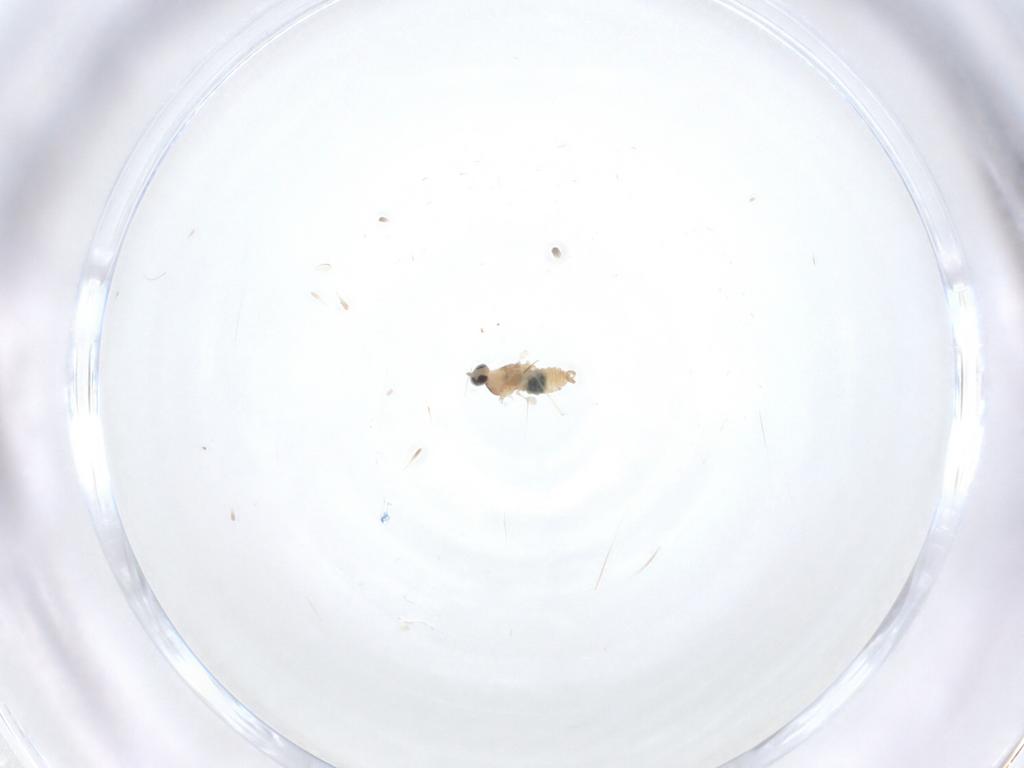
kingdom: Animalia
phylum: Arthropoda
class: Insecta
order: Diptera
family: Cecidomyiidae
